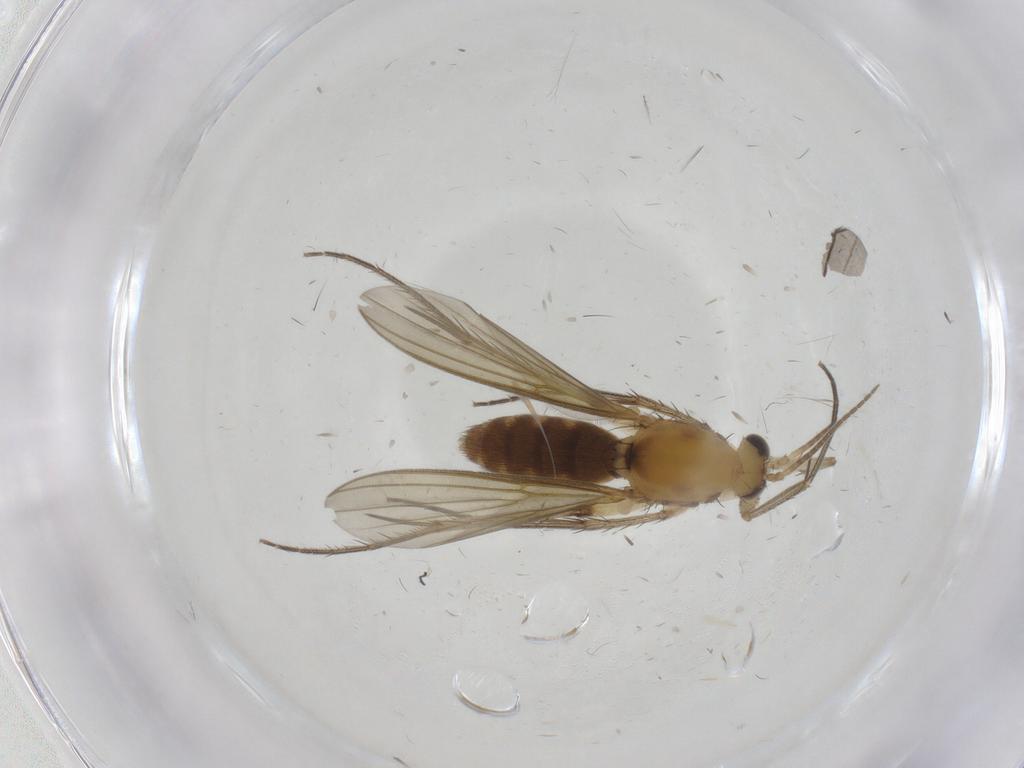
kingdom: Animalia
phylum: Arthropoda
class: Insecta
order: Diptera
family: Mycetophilidae
